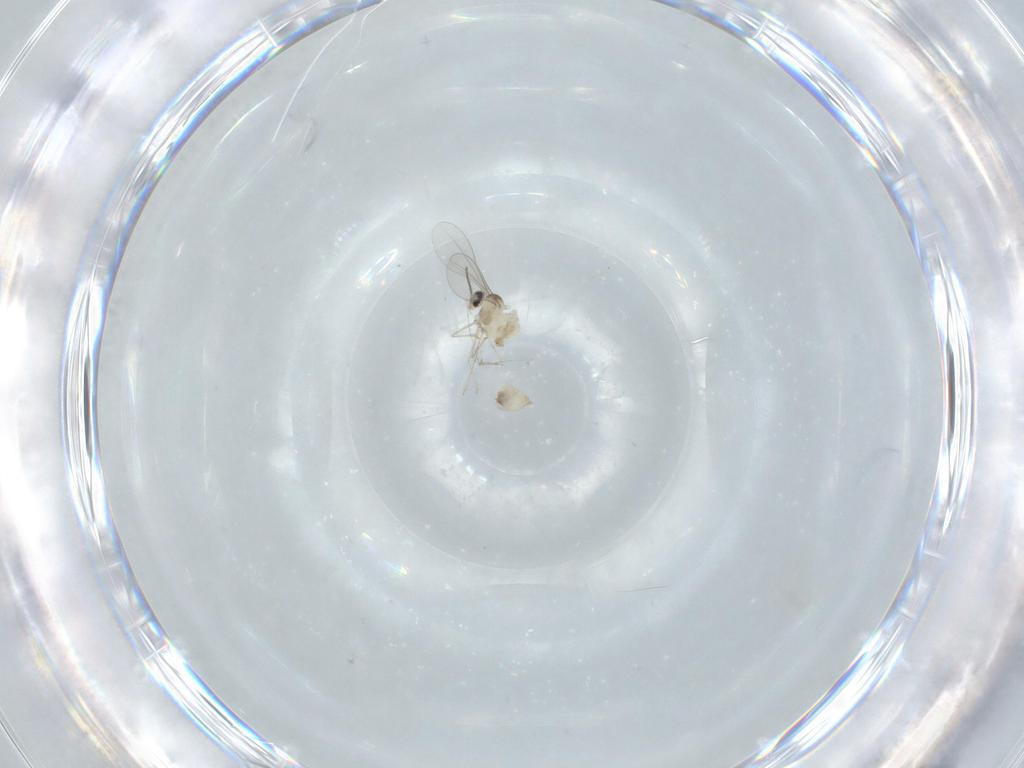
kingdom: Animalia
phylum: Arthropoda
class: Insecta
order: Diptera
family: Cecidomyiidae
